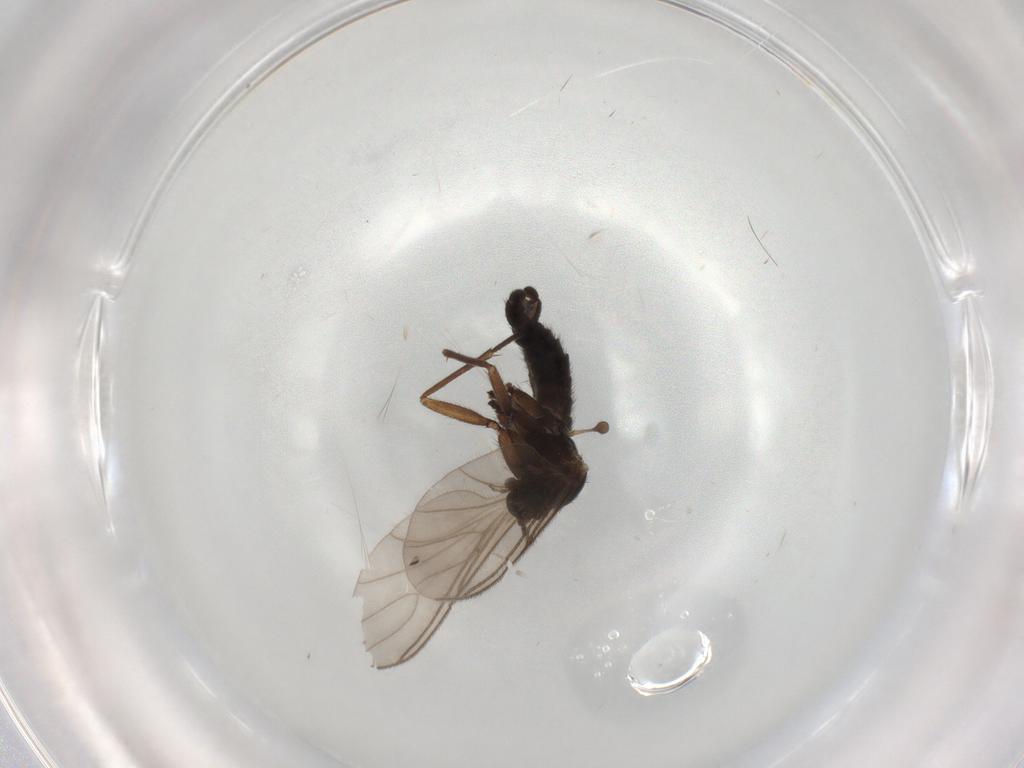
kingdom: Animalia
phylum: Arthropoda
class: Insecta
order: Diptera
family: Sciaridae
